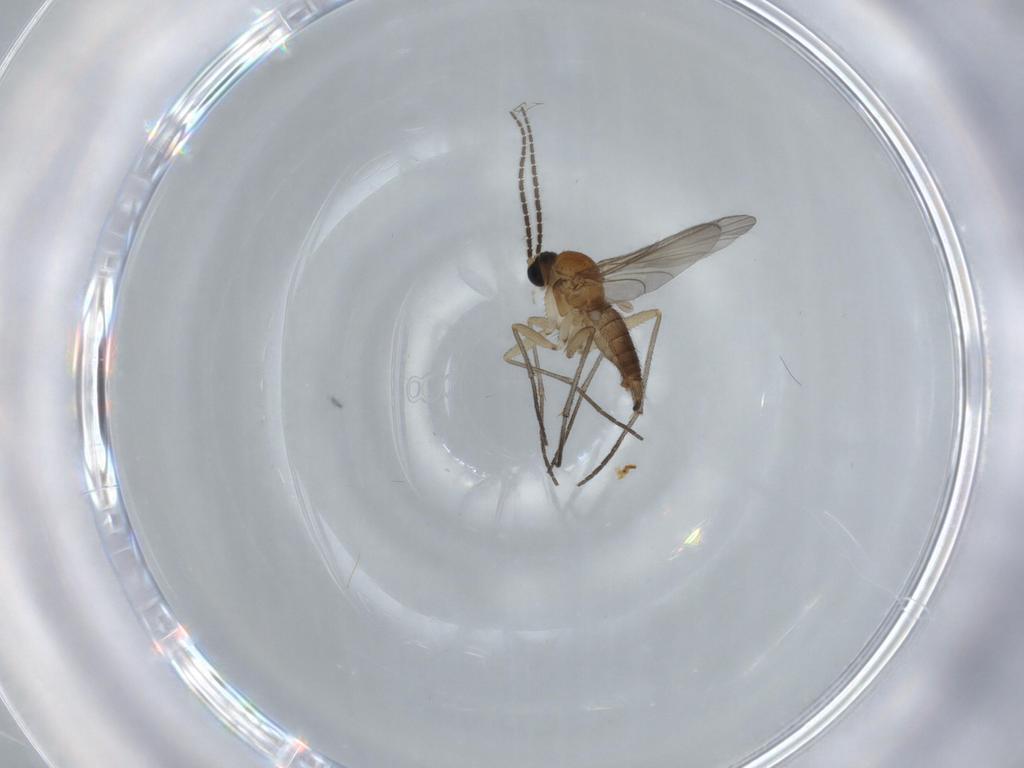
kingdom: Animalia
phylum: Arthropoda
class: Insecta
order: Diptera
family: Sciaridae
